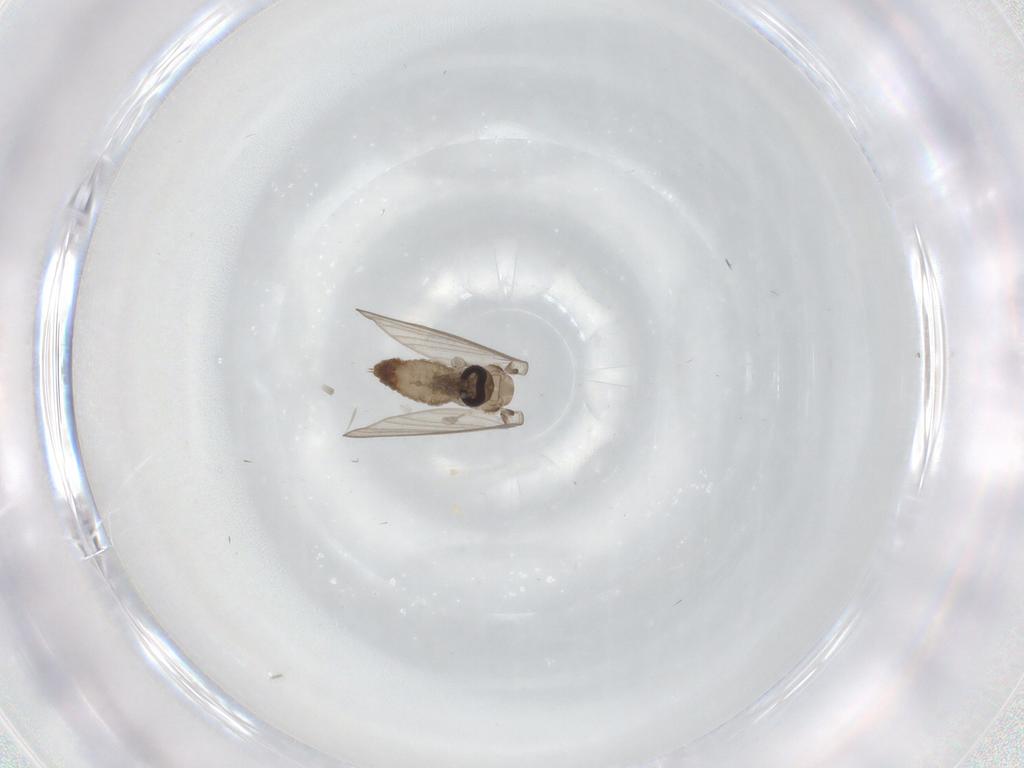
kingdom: Animalia
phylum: Arthropoda
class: Insecta
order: Diptera
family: Psychodidae
